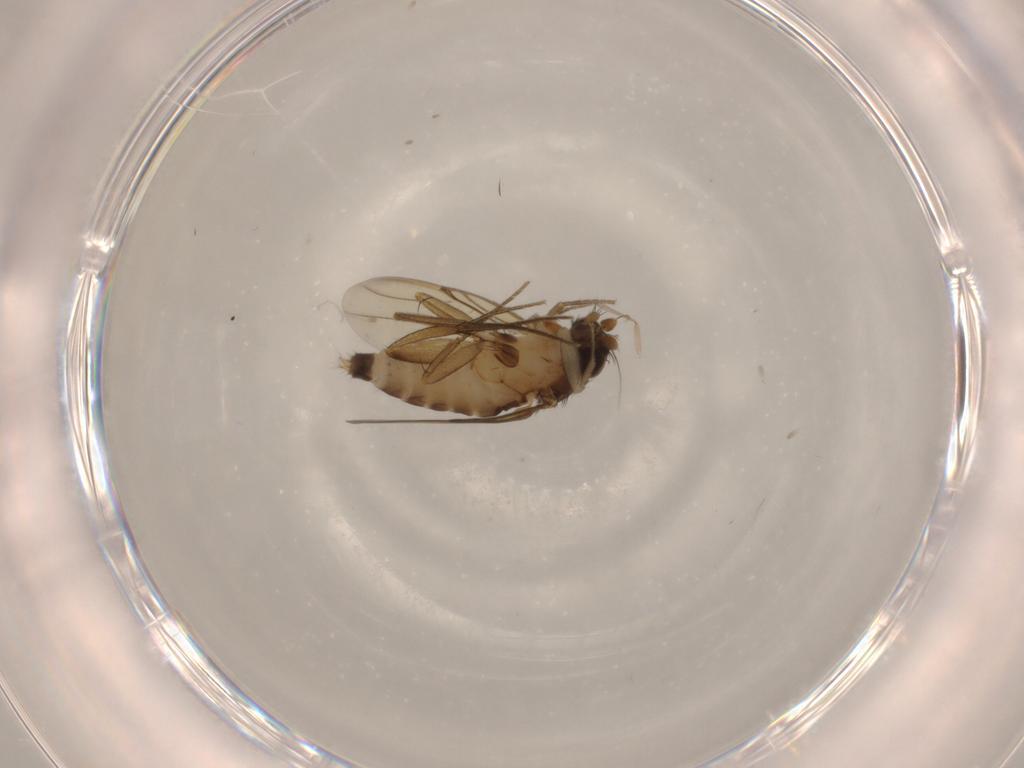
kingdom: Animalia
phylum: Arthropoda
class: Insecta
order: Diptera
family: Psychodidae
